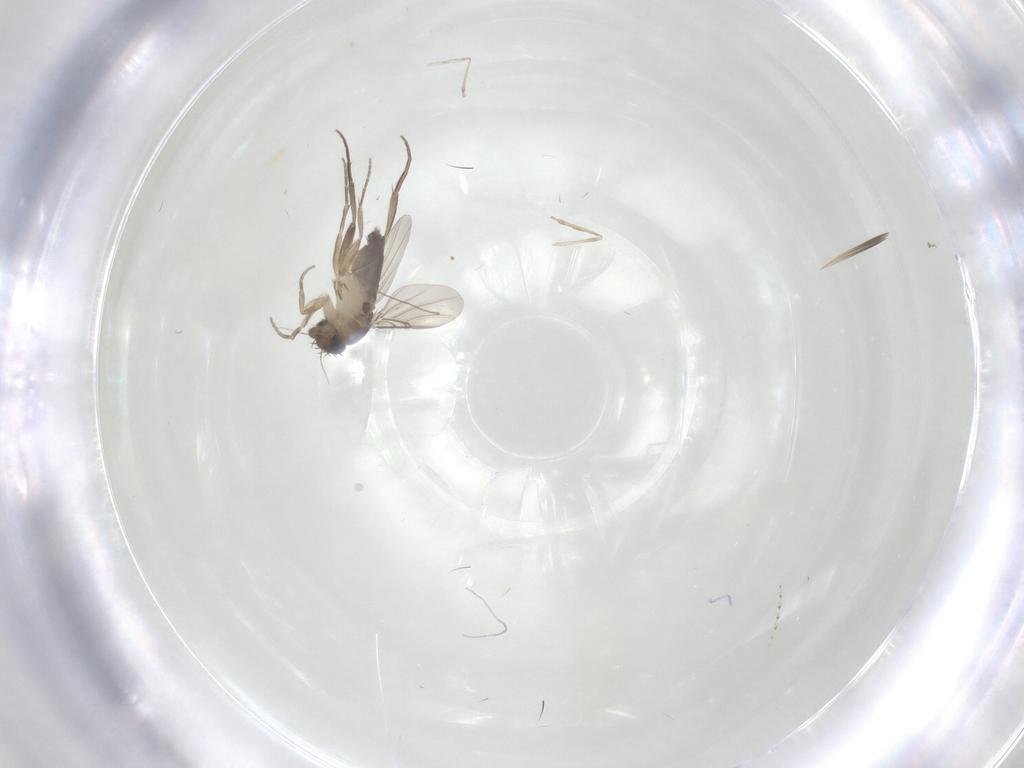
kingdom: Animalia
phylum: Arthropoda
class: Insecta
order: Diptera
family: Phoridae
